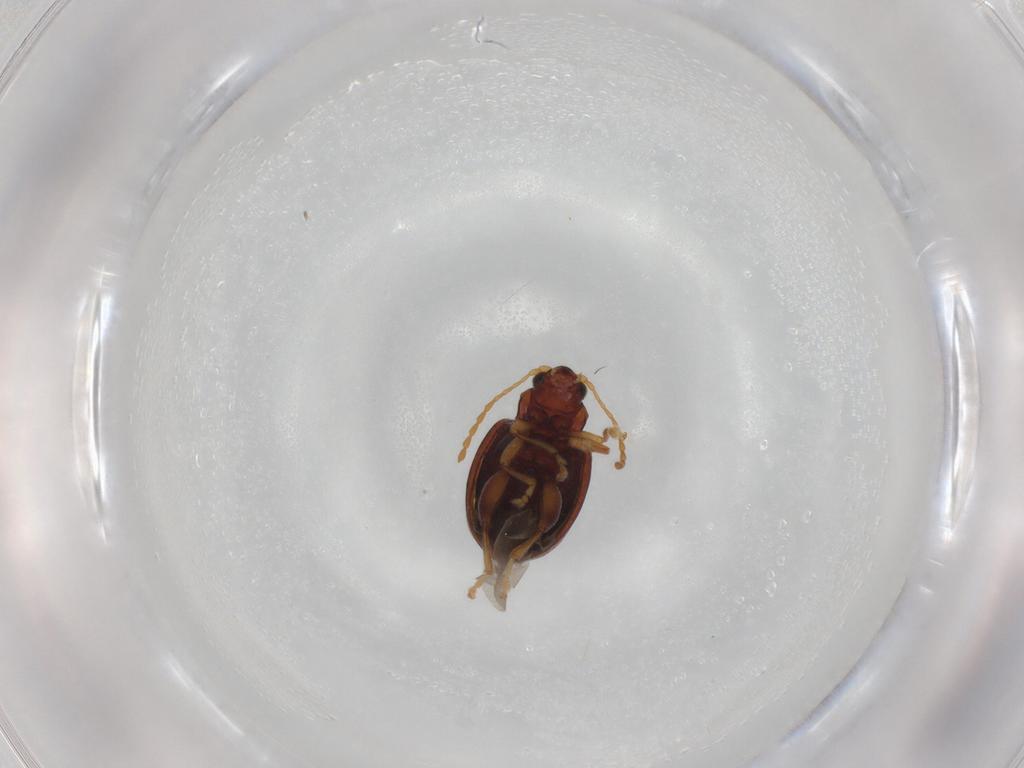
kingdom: Animalia
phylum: Arthropoda
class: Insecta
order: Coleoptera
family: Chrysomelidae
